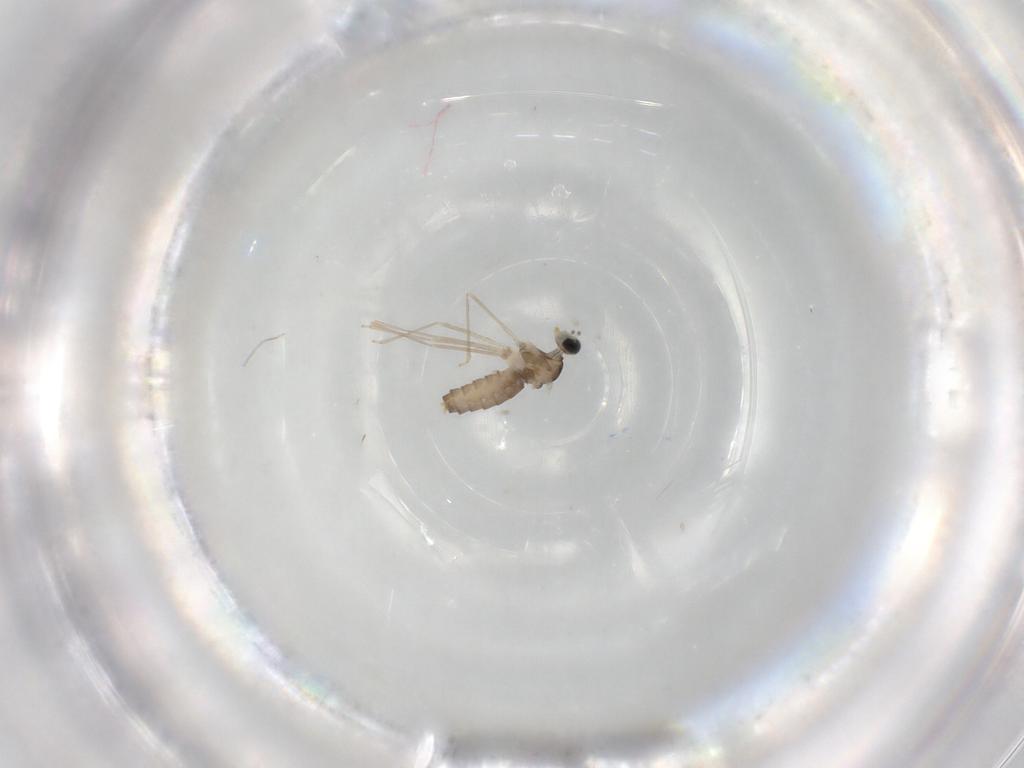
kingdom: Animalia
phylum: Arthropoda
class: Insecta
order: Diptera
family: Cecidomyiidae
